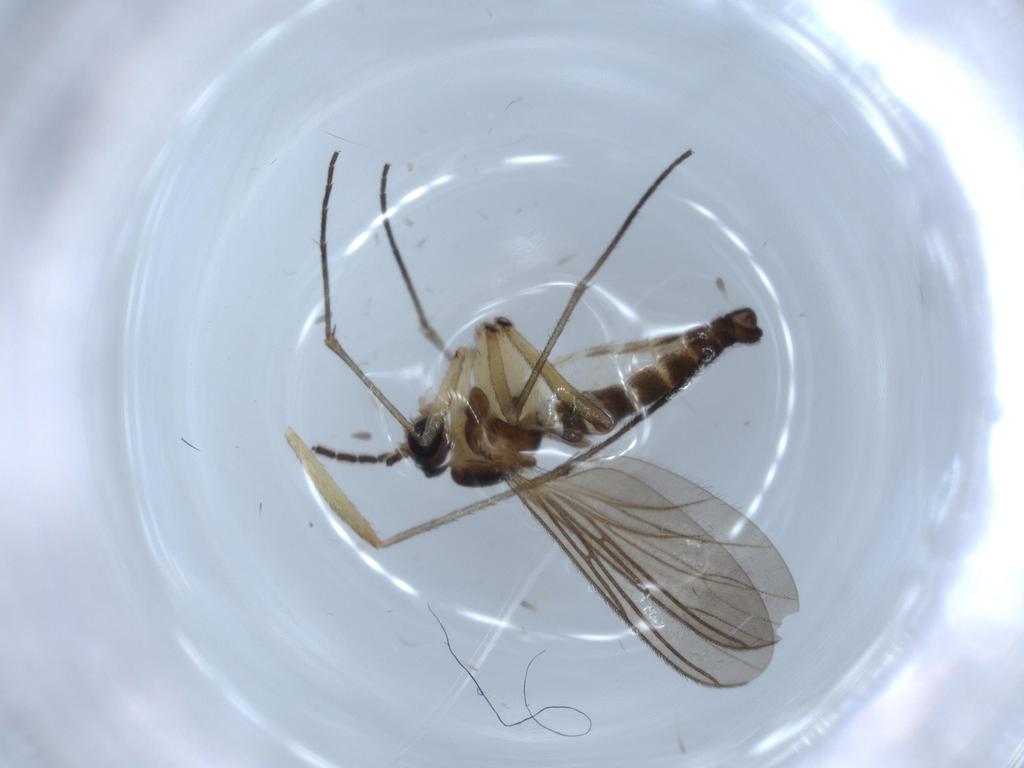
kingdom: Animalia
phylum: Arthropoda
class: Insecta
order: Diptera
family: Sciaridae
